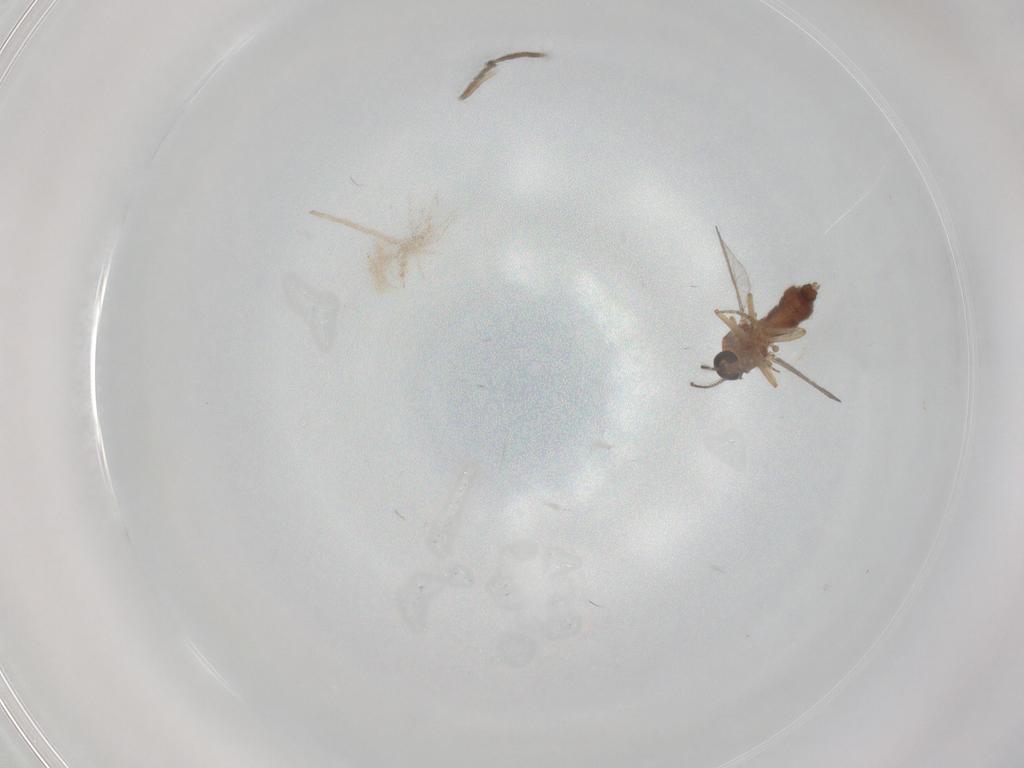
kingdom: Animalia
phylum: Arthropoda
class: Insecta
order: Diptera
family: Psychodidae
